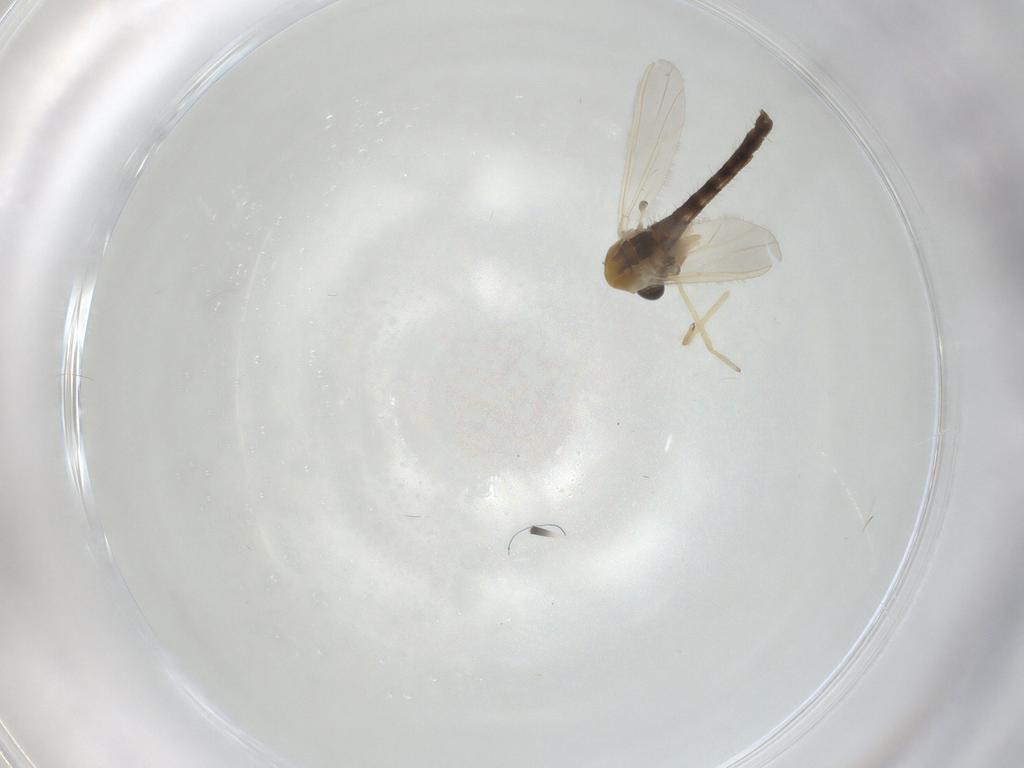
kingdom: Animalia
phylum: Arthropoda
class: Insecta
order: Diptera
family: Chironomidae
